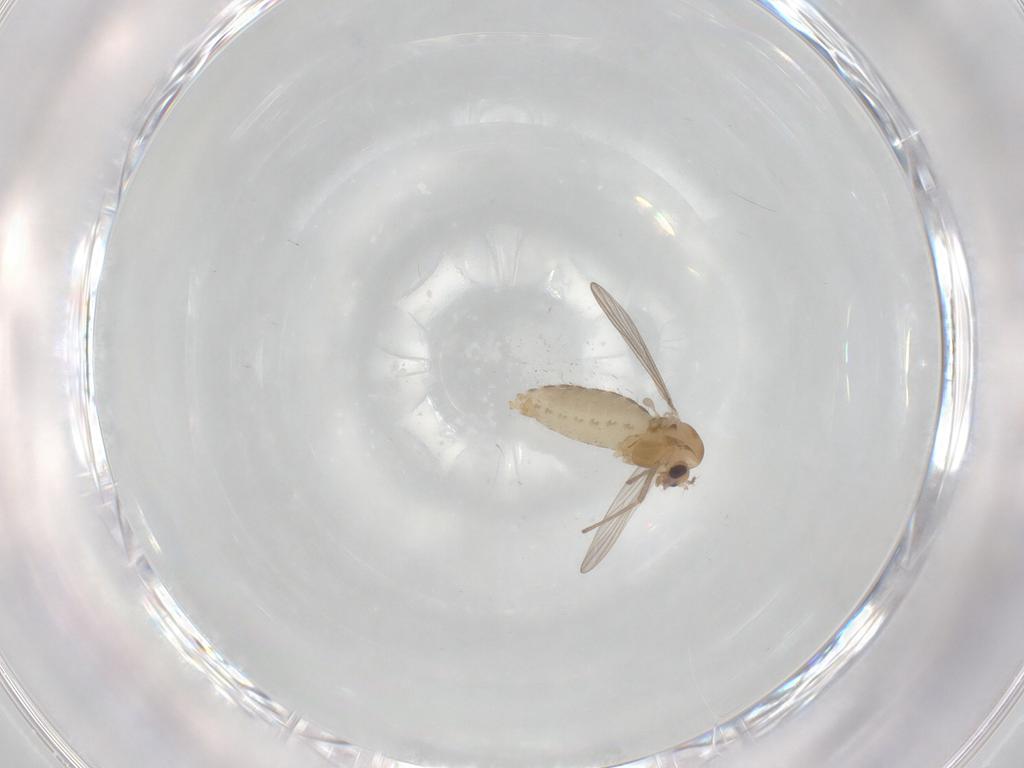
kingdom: Animalia
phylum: Arthropoda
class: Insecta
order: Diptera
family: Chironomidae
